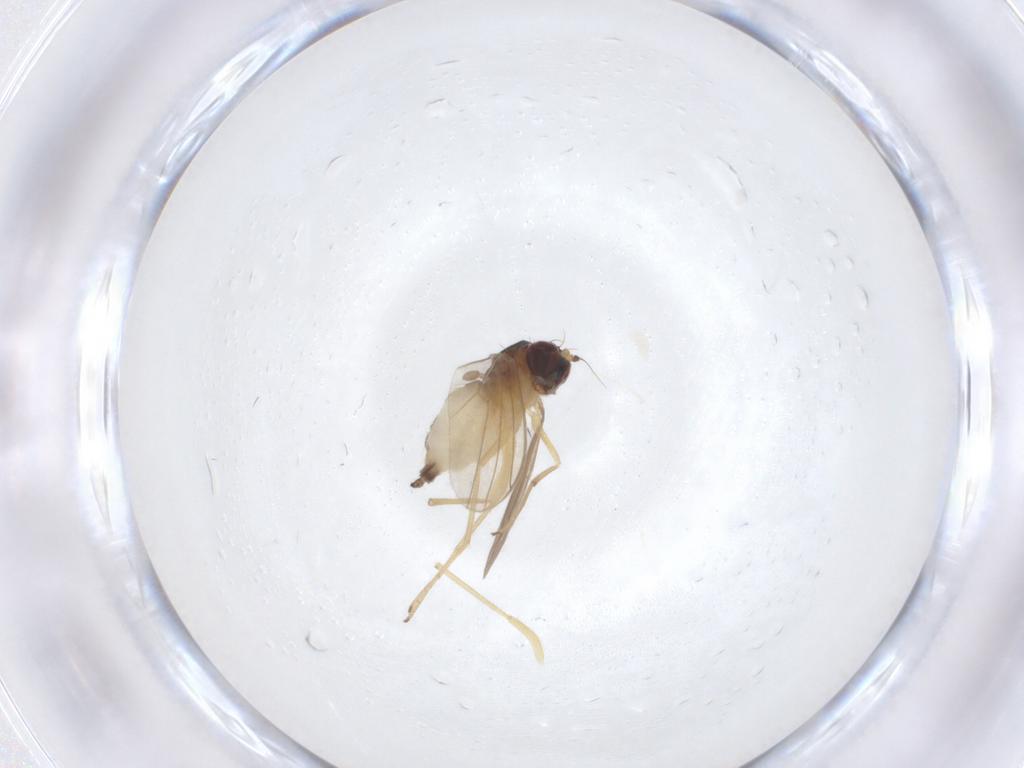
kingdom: Animalia
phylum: Arthropoda
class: Insecta
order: Diptera
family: Dolichopodidae
